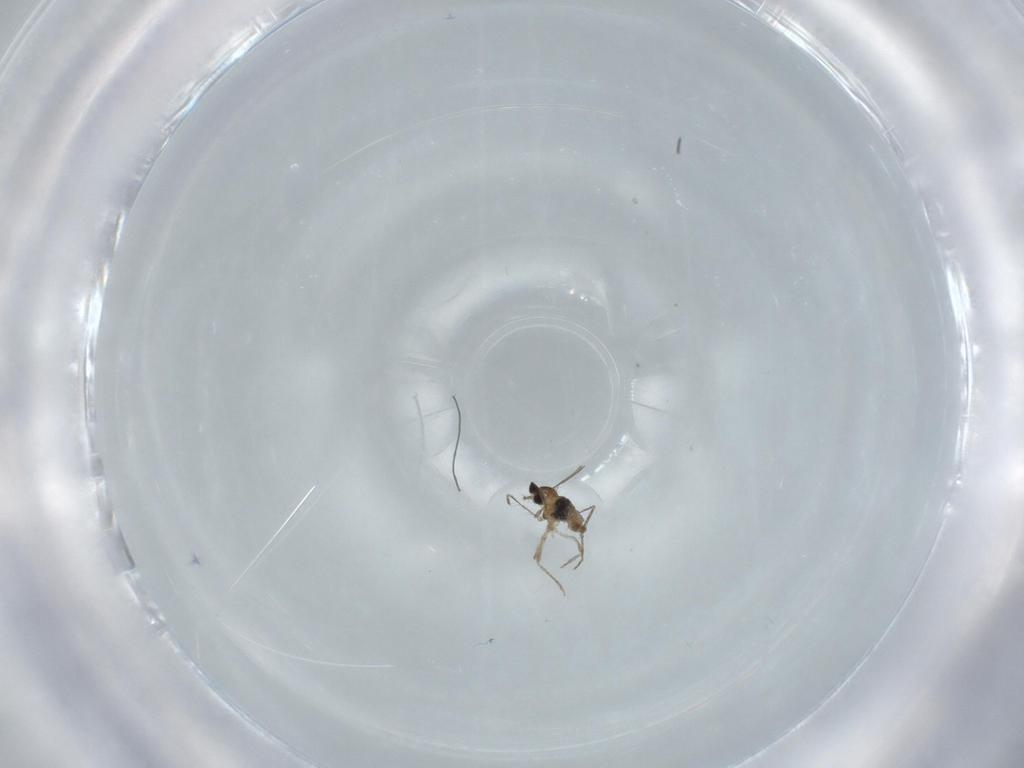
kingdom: Animalia
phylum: Arthropoda
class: Insecta
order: Diptera
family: Cecidomyiidae
